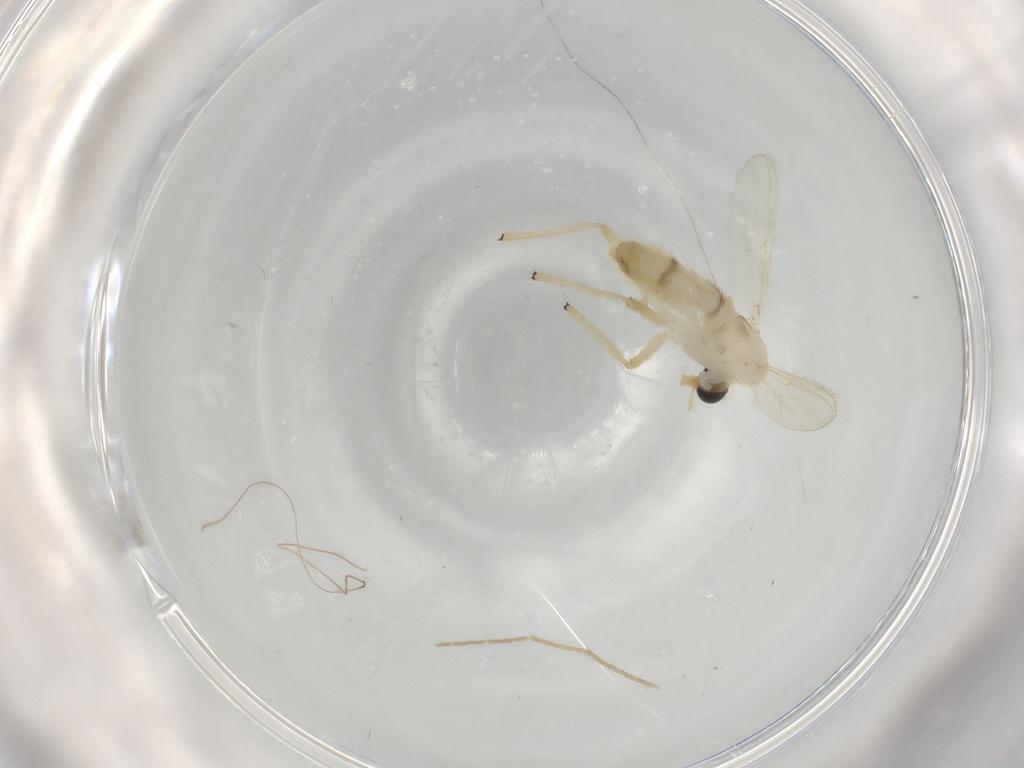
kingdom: Animalia
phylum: Arthropoda
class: Insecta
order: Diptera
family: Chironomidae
